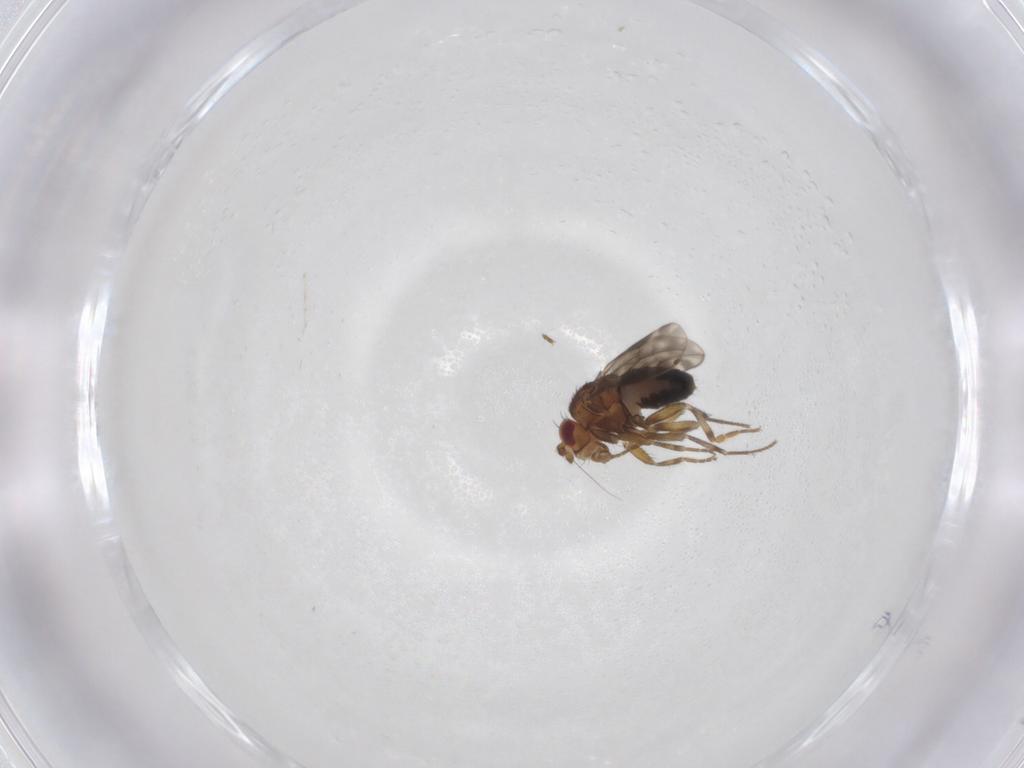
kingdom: Animalia
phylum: Arthropoda
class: Insecta
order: Diptera
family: Sphaeroceridae
